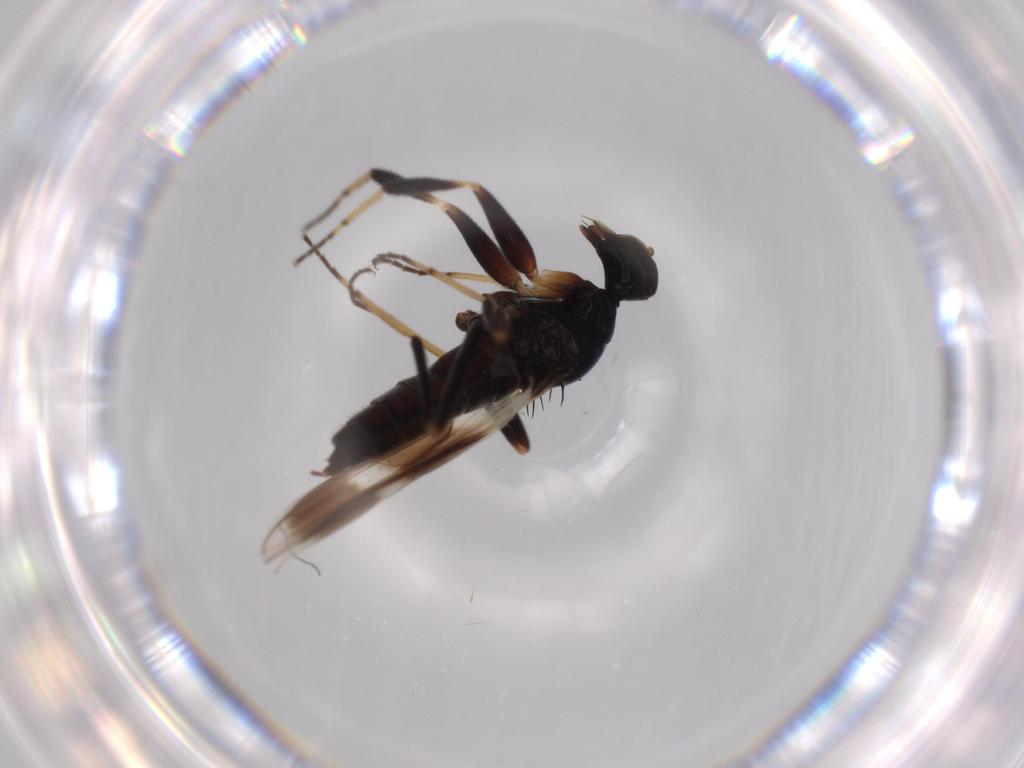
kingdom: Animalia
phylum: Arthropoda
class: Insecta
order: Diptera
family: Hybotidae
